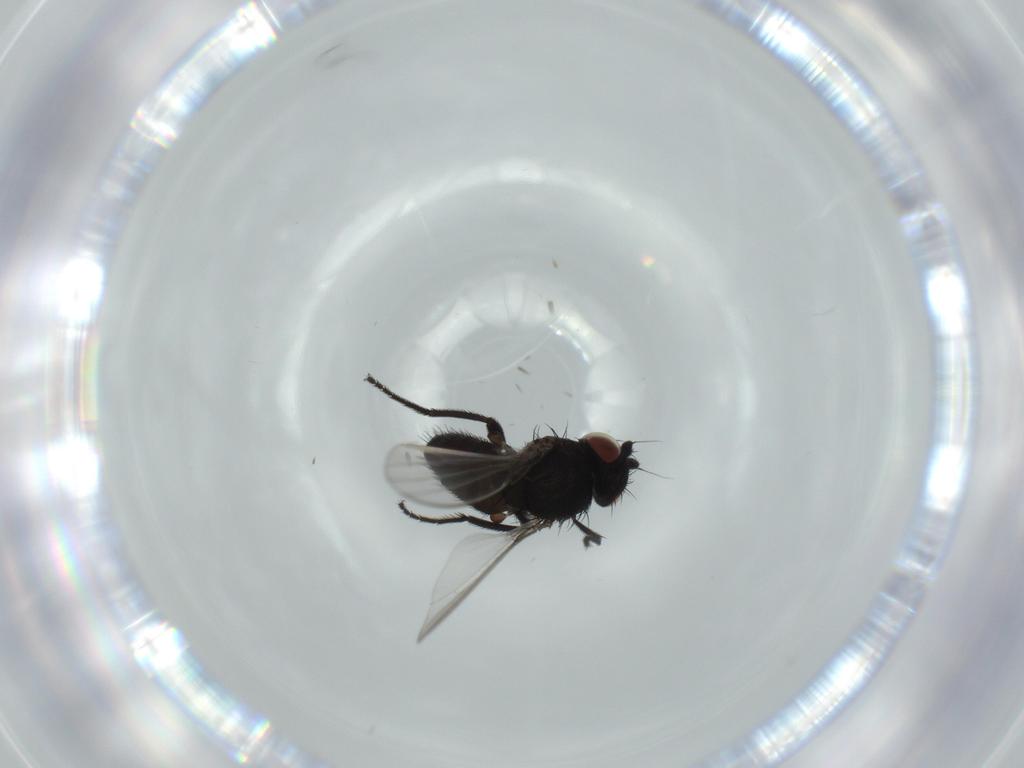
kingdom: Animalia
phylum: Arthropoda
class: Insecta
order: Diptera
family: Milichiidae
